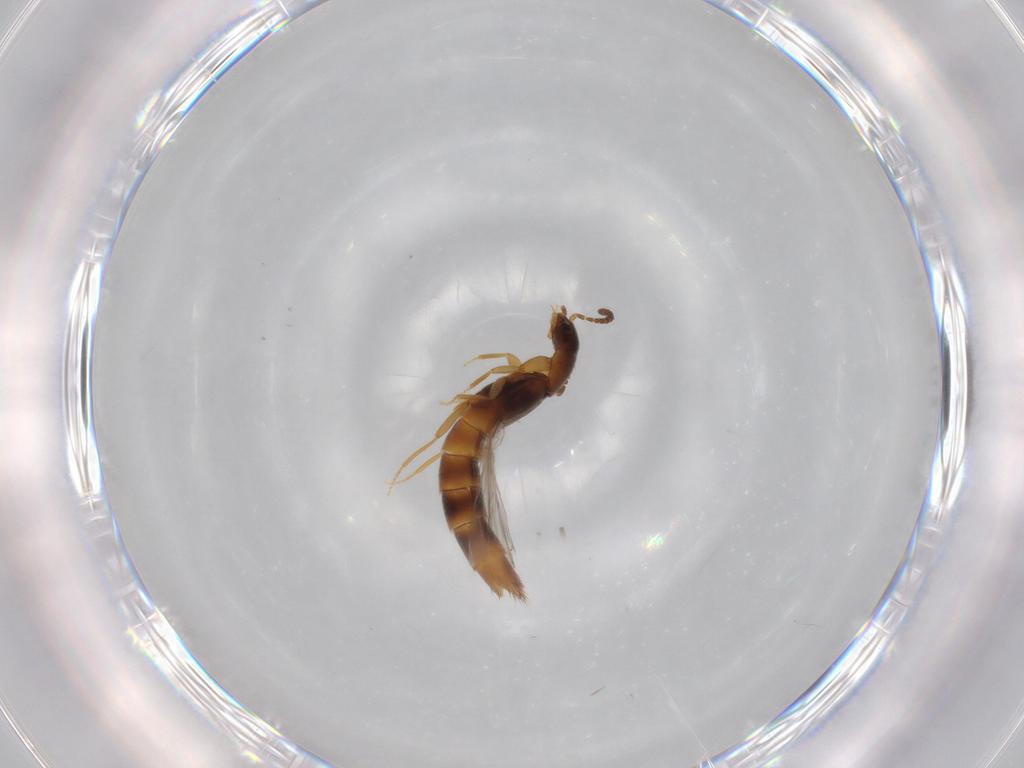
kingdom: Animalia
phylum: Arthropoda
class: Insecta
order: Coleoptera
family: Staphylinidae
